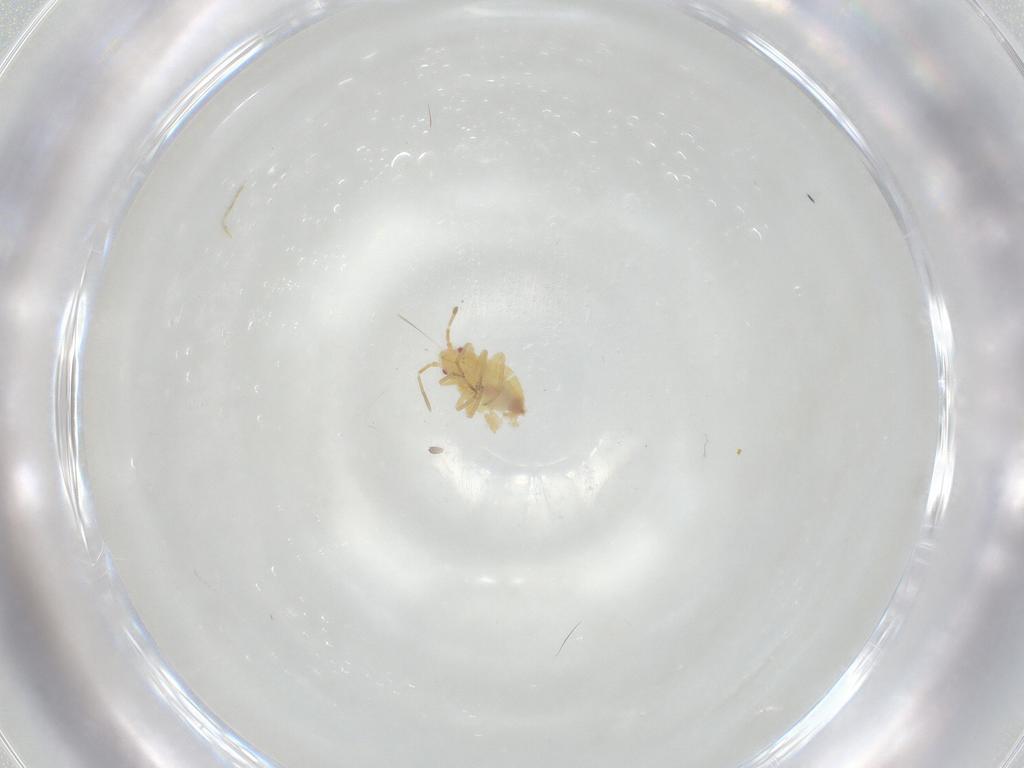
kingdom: Animalia
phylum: Arthropoda
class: Insecta
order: Hemiptera
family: Miridae
